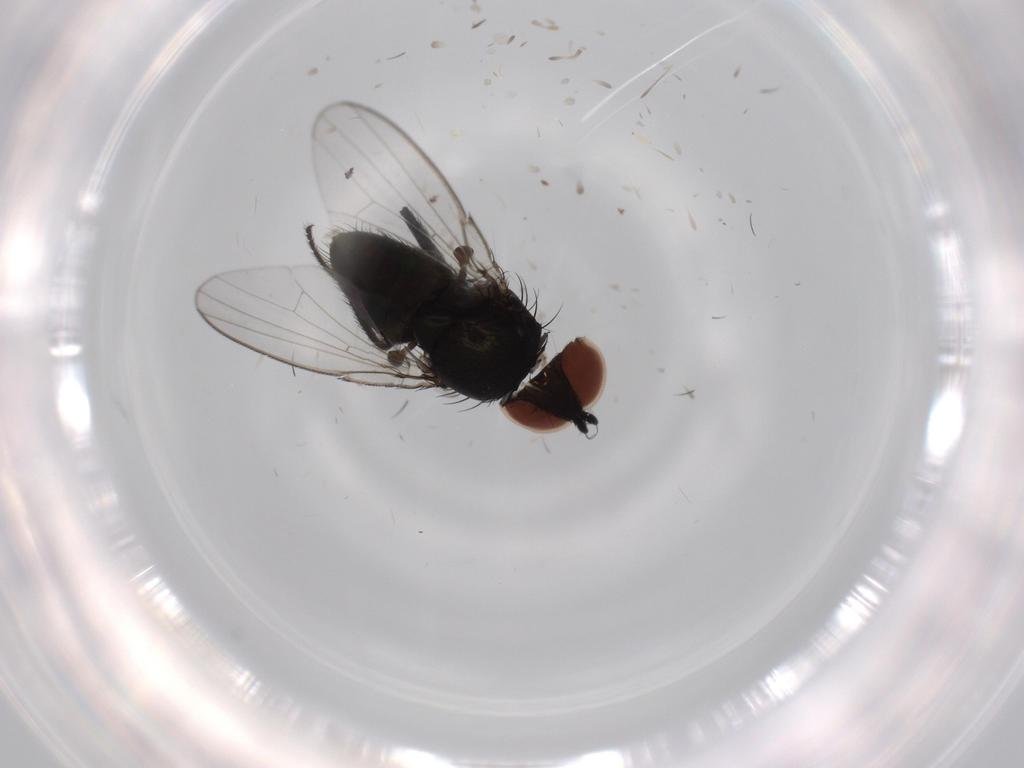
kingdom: Animalia
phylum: Arthropoda
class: Insecta
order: Diptera
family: Milichiidae
